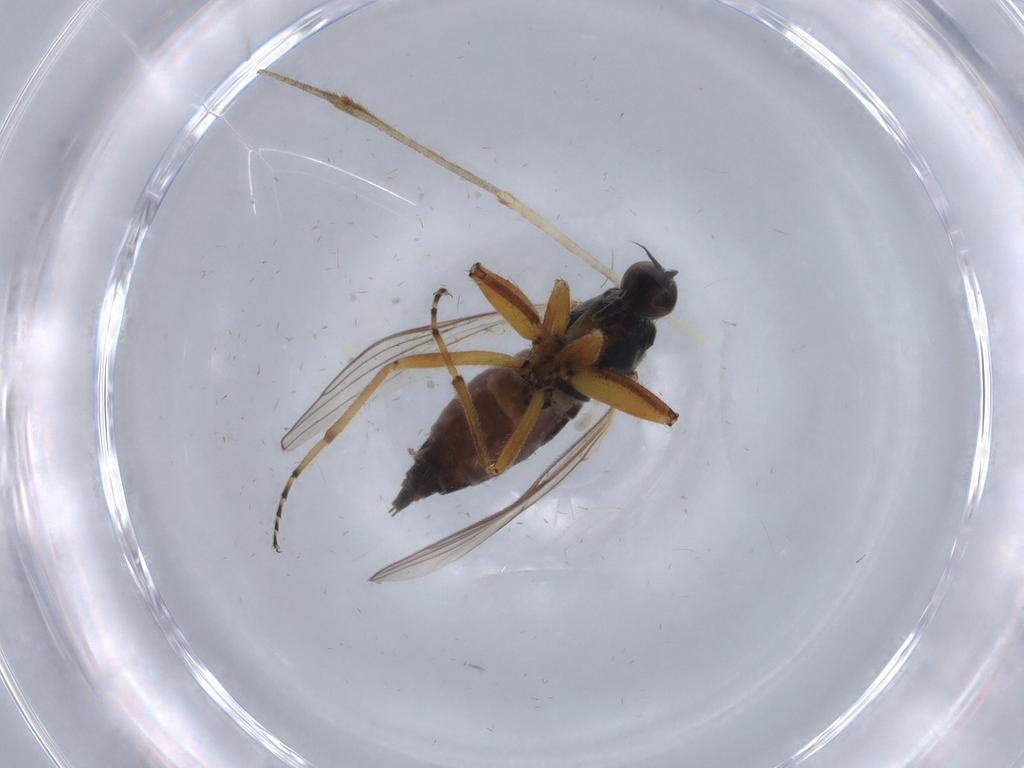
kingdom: Animalia
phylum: Arthropoda
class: Insecta
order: Diptera
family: Hybotidae
